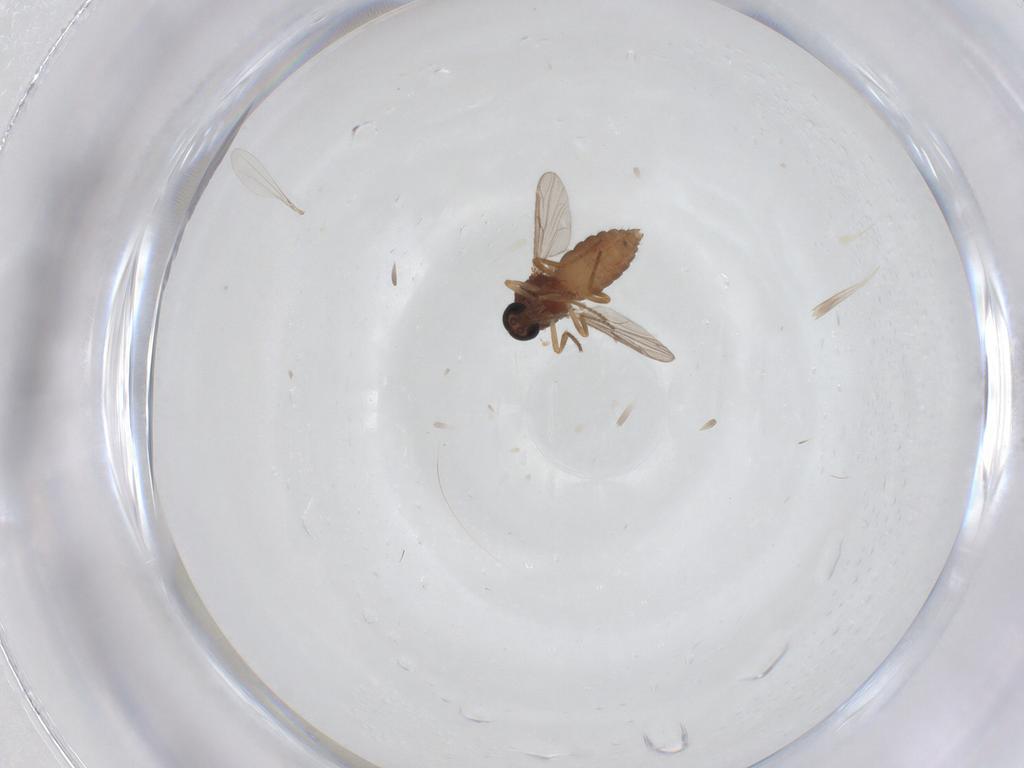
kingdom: Animalia
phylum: Arthropoda
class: Insecta
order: Diptera
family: Ceratopogonidae
